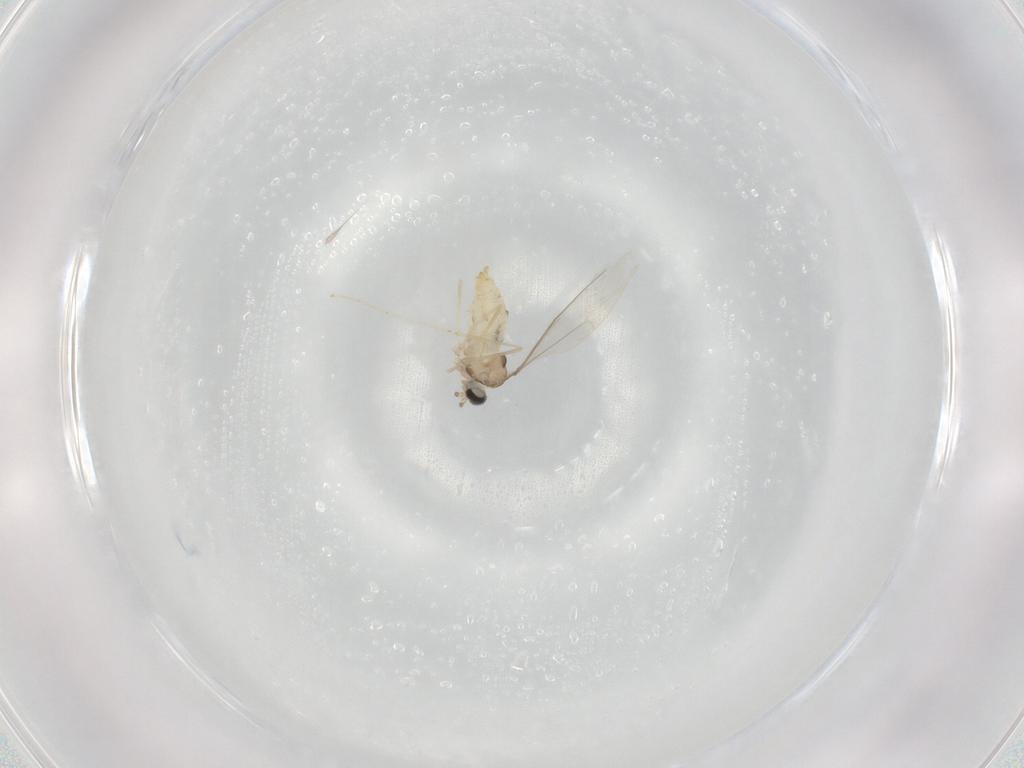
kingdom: Animalia
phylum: Arthropoda
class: Insecta
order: Diptera
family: Cecidomyiidae
